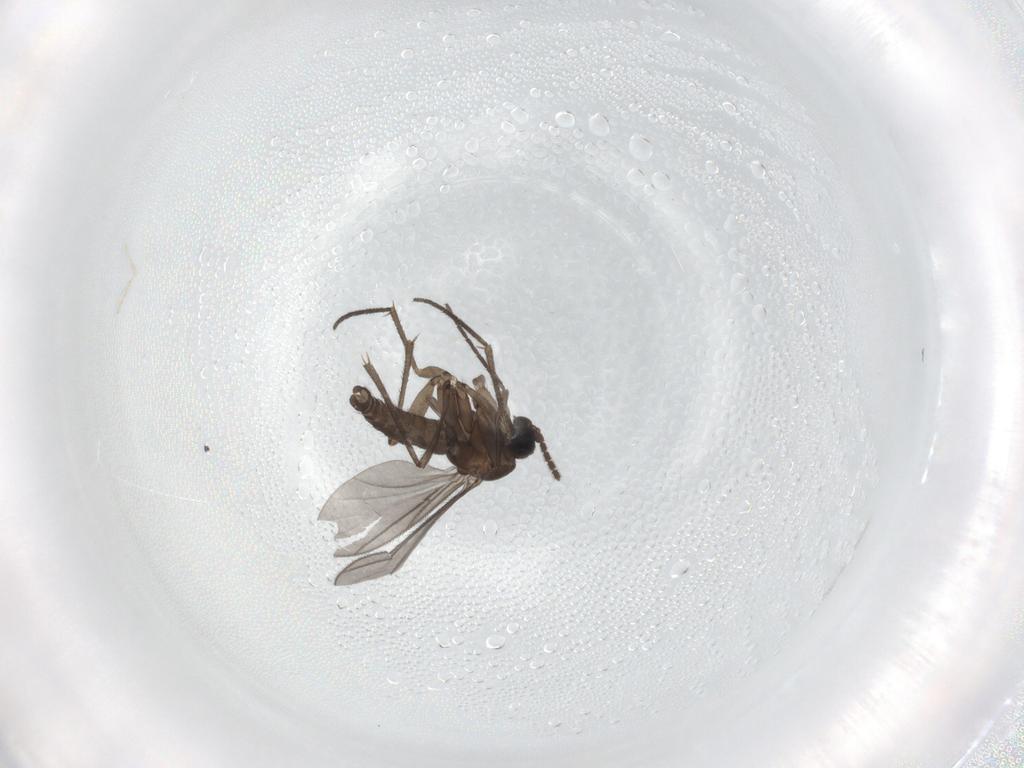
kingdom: Animalia
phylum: Arthropoda
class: Insecta
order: Diptera
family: Sciaridae
